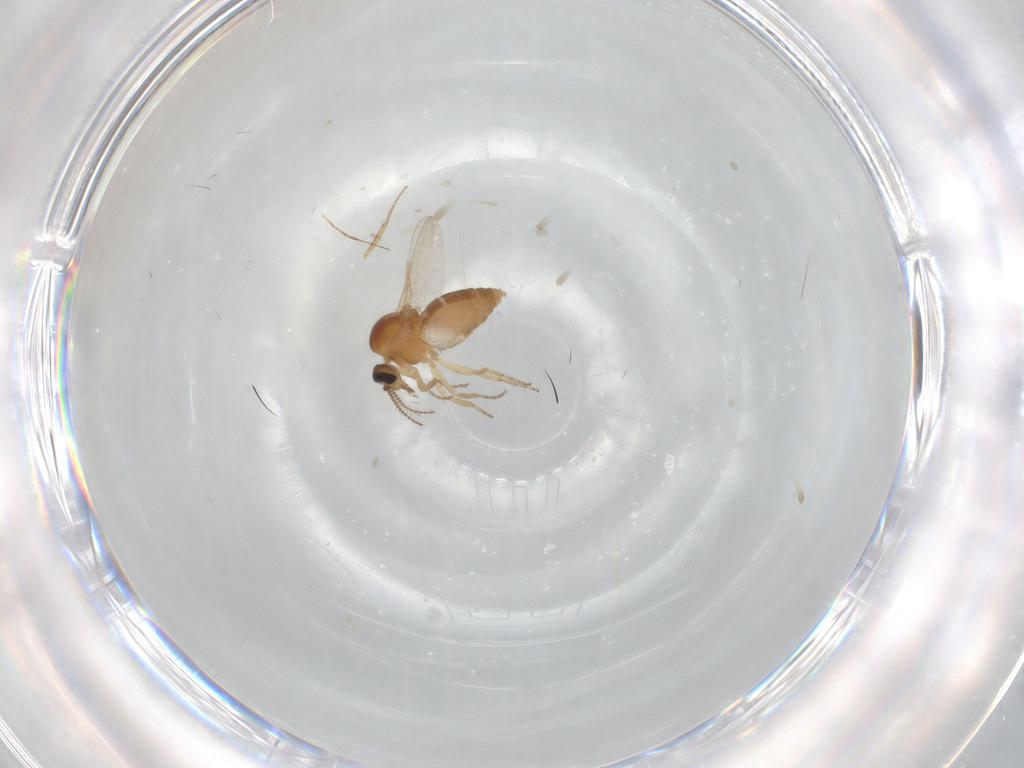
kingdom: Animalia
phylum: Arthropoda
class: Insecta
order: Diptera
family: Ceratopogonidae
